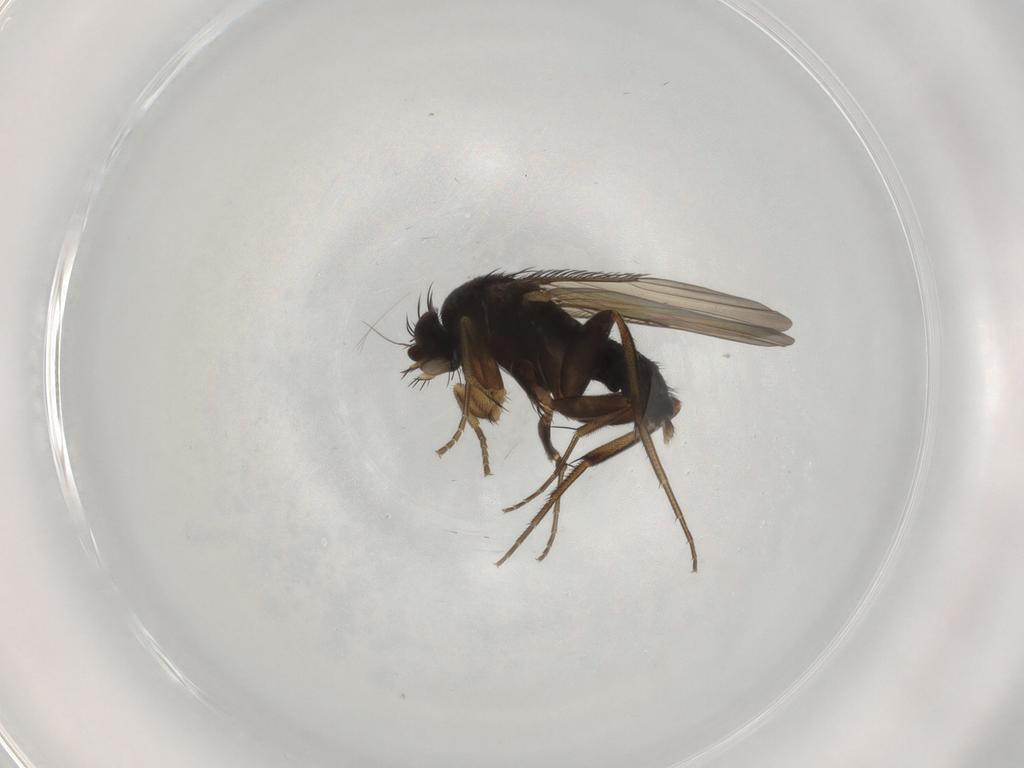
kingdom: Animalia
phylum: Arthropoda
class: Insecta
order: Diptera
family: Phoridae
